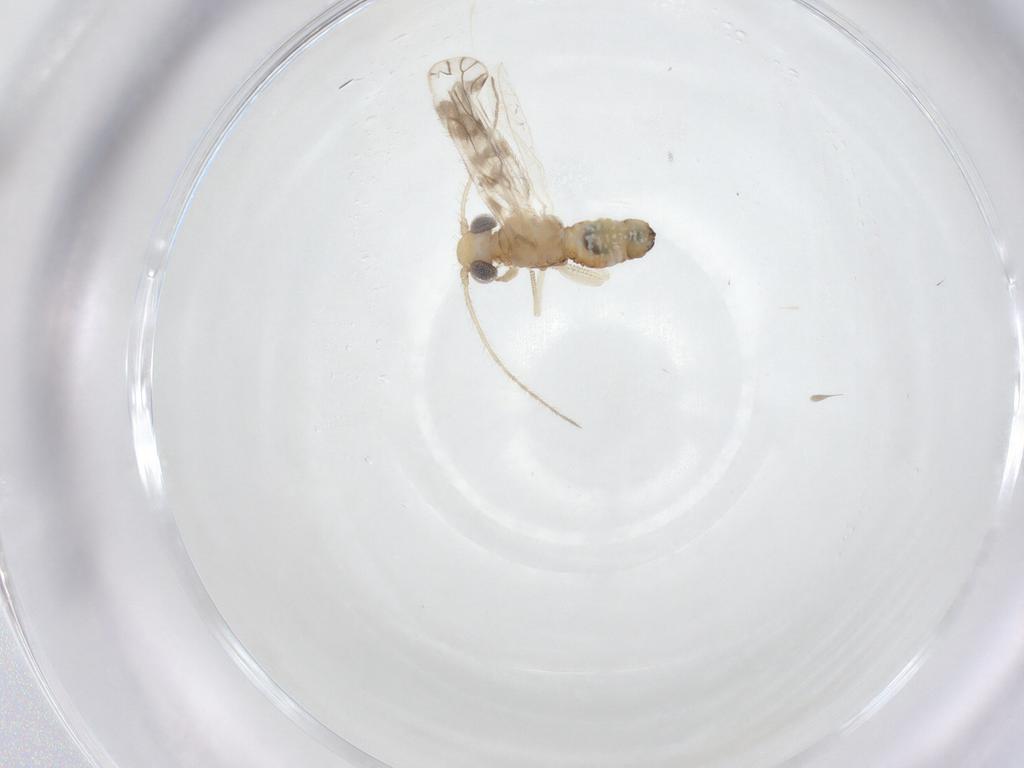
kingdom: Animalia
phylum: Arthropoda
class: Insecta
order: Psocodea
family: Pseudocaeciliidae
